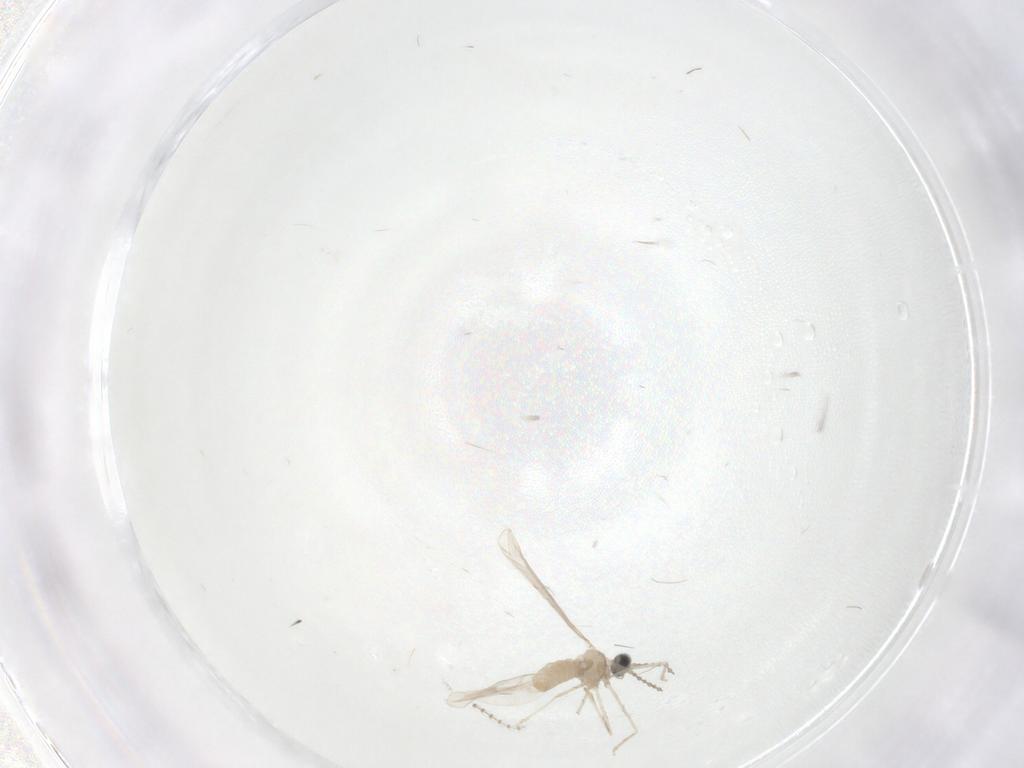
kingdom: Animalia
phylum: Arthropoda
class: Insecta
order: Diptera
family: Cecidomyiidae
